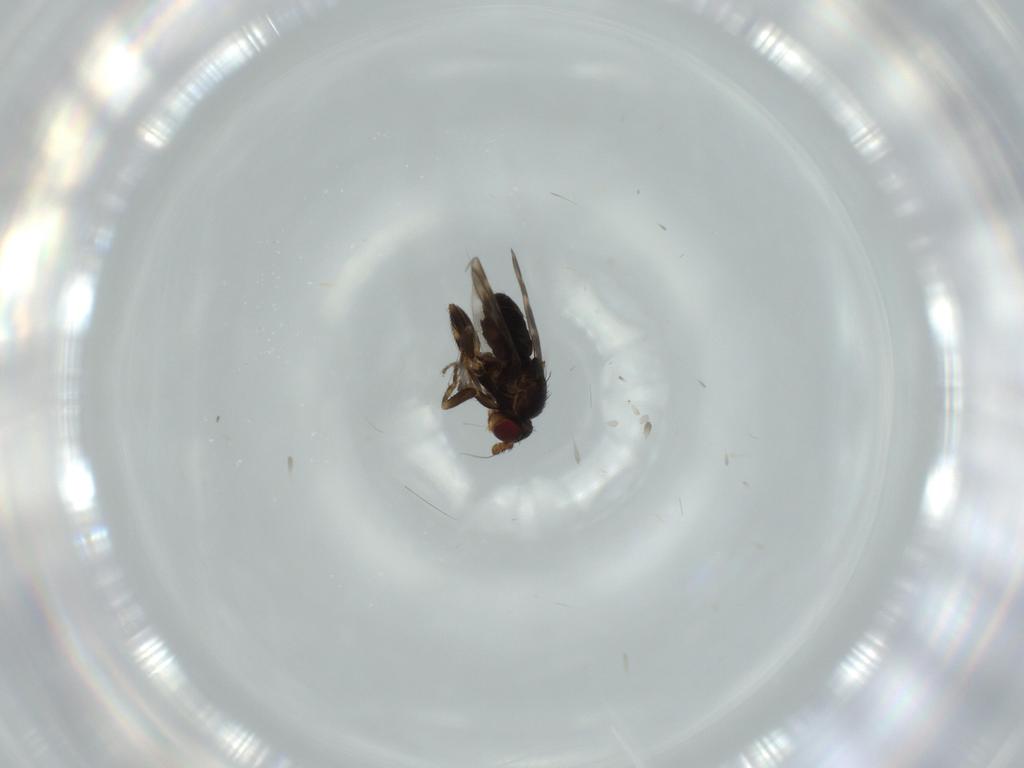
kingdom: Animalia
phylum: Arthropoda
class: Insecta
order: Diptera
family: Sphaeroceridae
